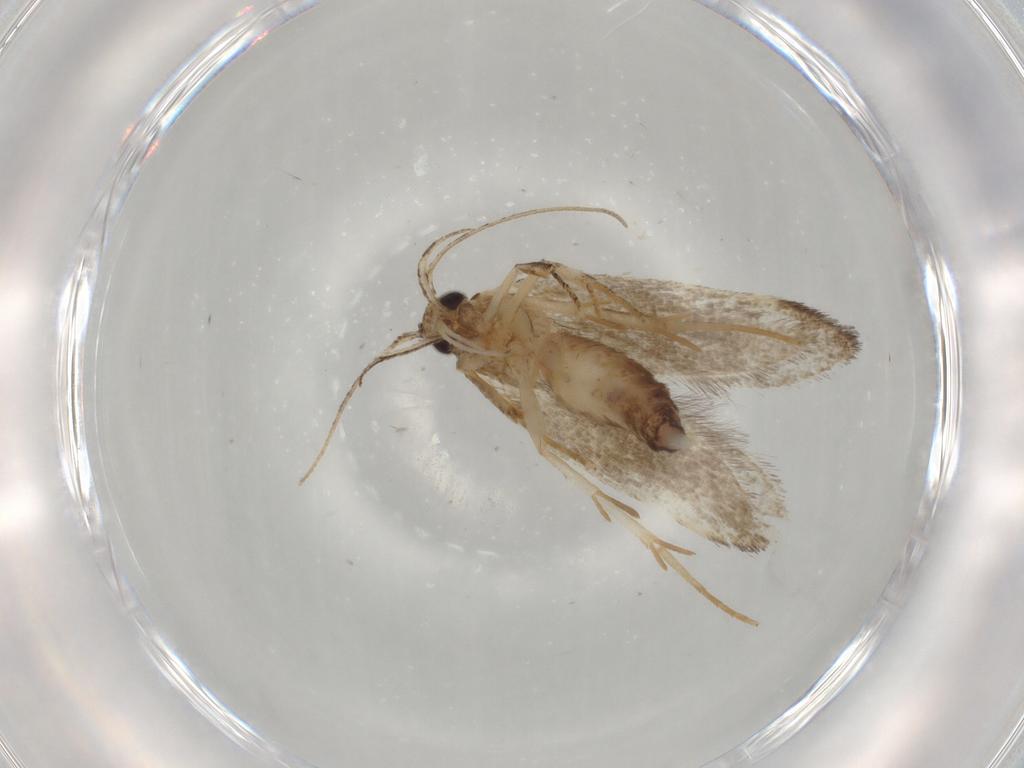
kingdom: Animalia
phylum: Arthropoda
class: Insecta
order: Lepidoptera
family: Cosmopterigidae
